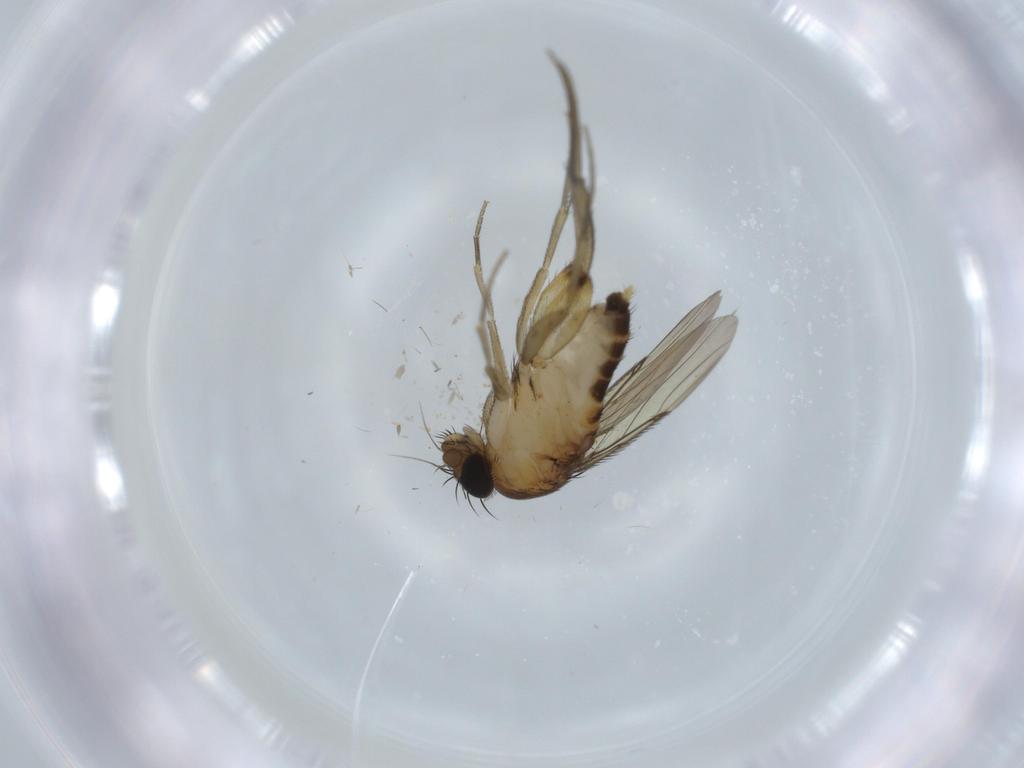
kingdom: Animalia
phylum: Arthropoda
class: Insecta
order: Diptera
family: Phoridae
